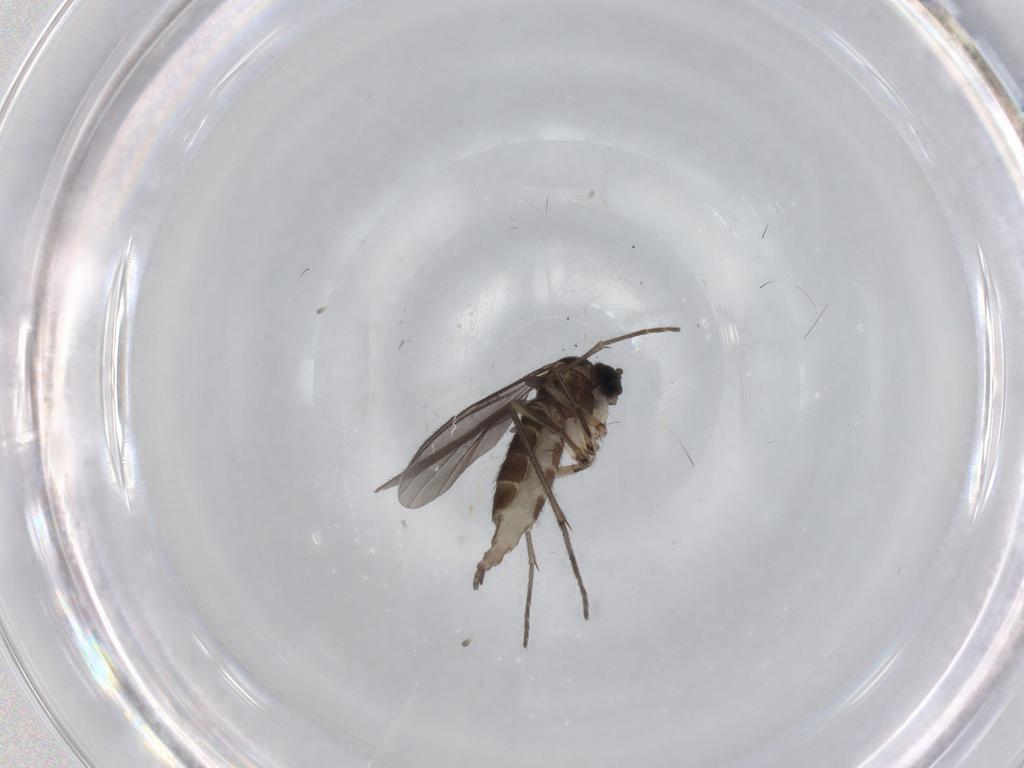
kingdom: Animalia
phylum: Arthropoda
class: Insecta
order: Diptera
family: Sciaridae
